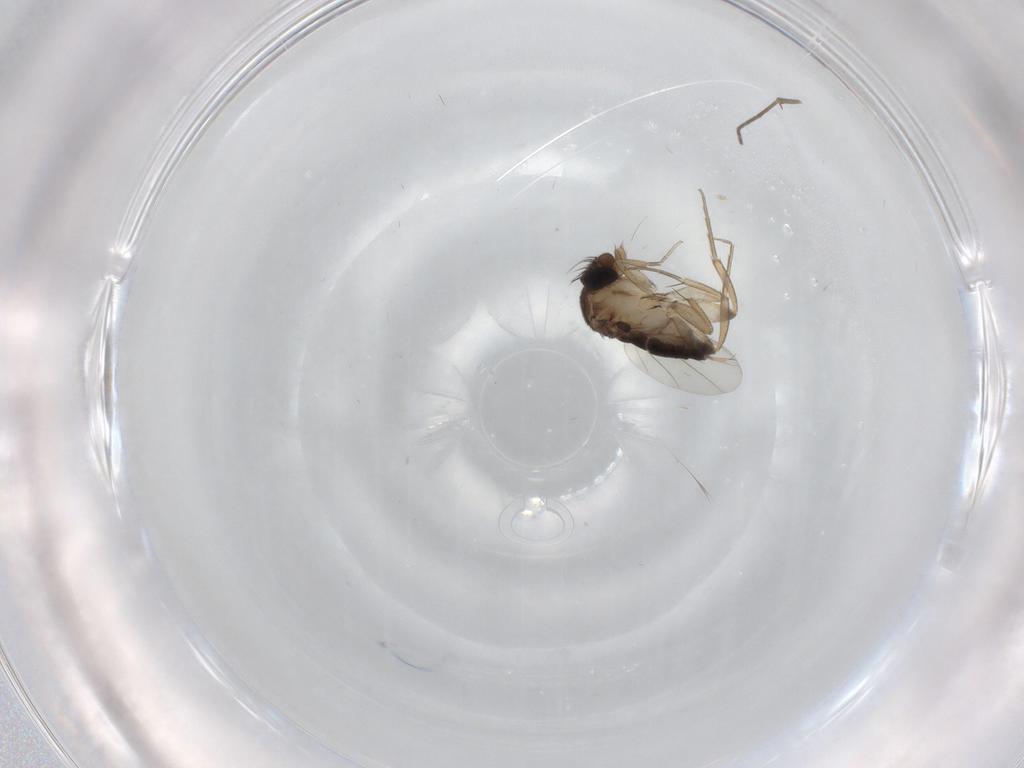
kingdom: Animalia
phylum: Arthropoda
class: Insecta
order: Diptera
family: Phoridae
